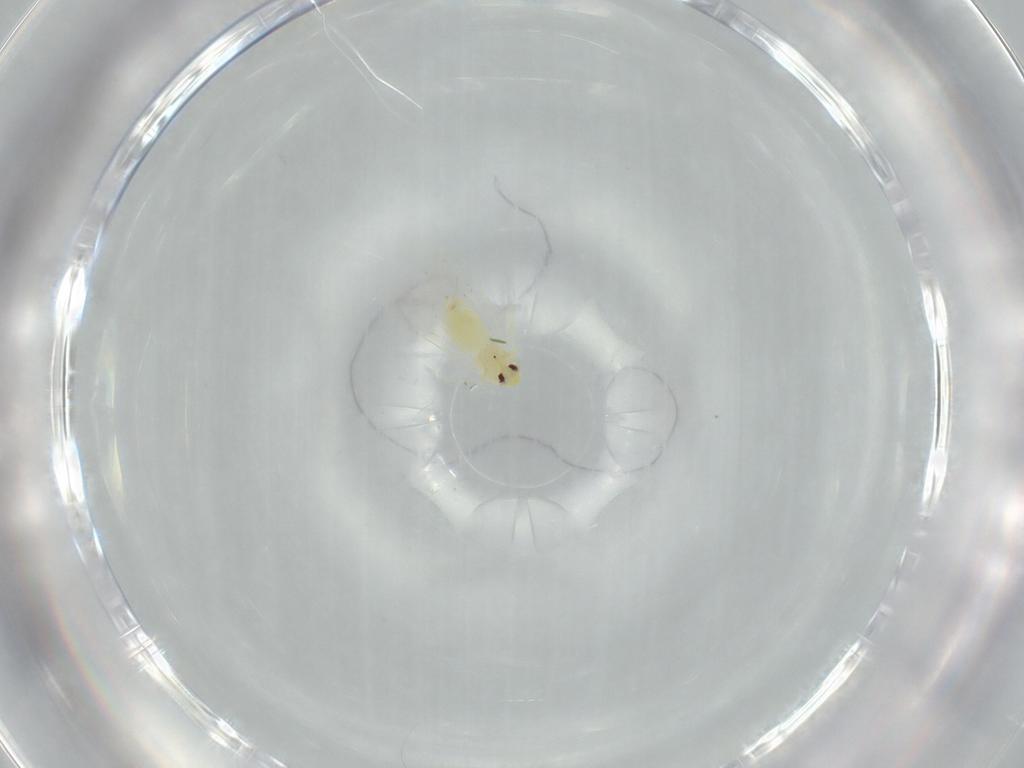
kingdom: Animalia
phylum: Arthropoda
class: Insecta
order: Hemiptera
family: Aleyrodidae
